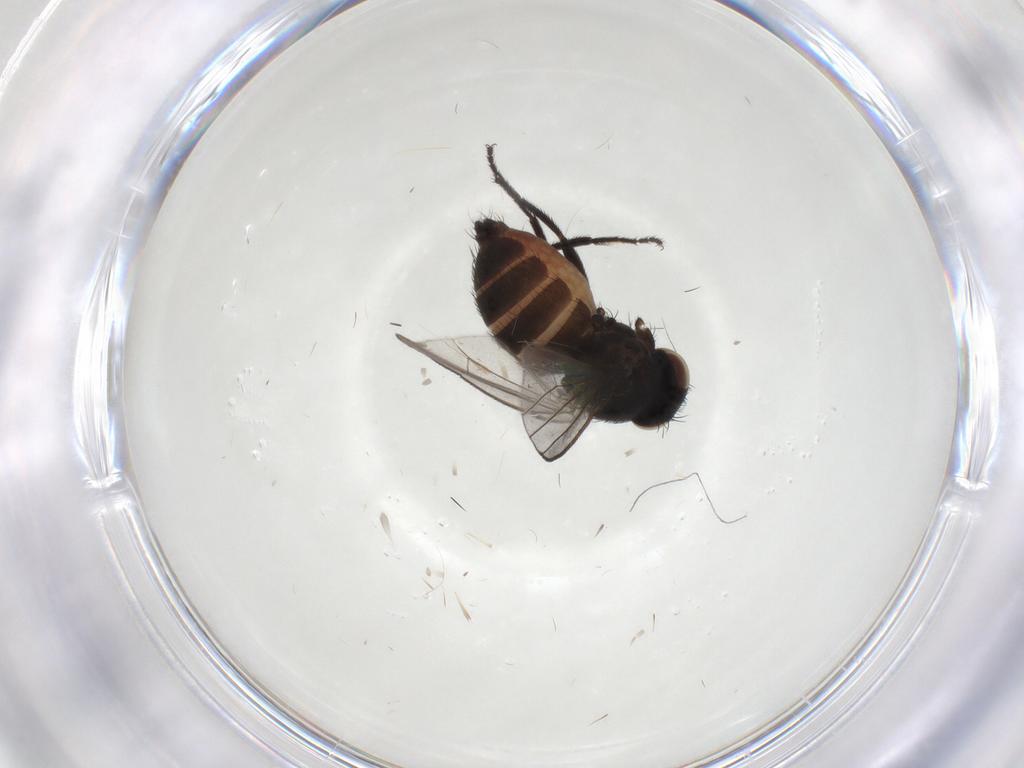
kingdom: Animalia
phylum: Arthropoda
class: Insecta
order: Diptera
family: Milichiidae
